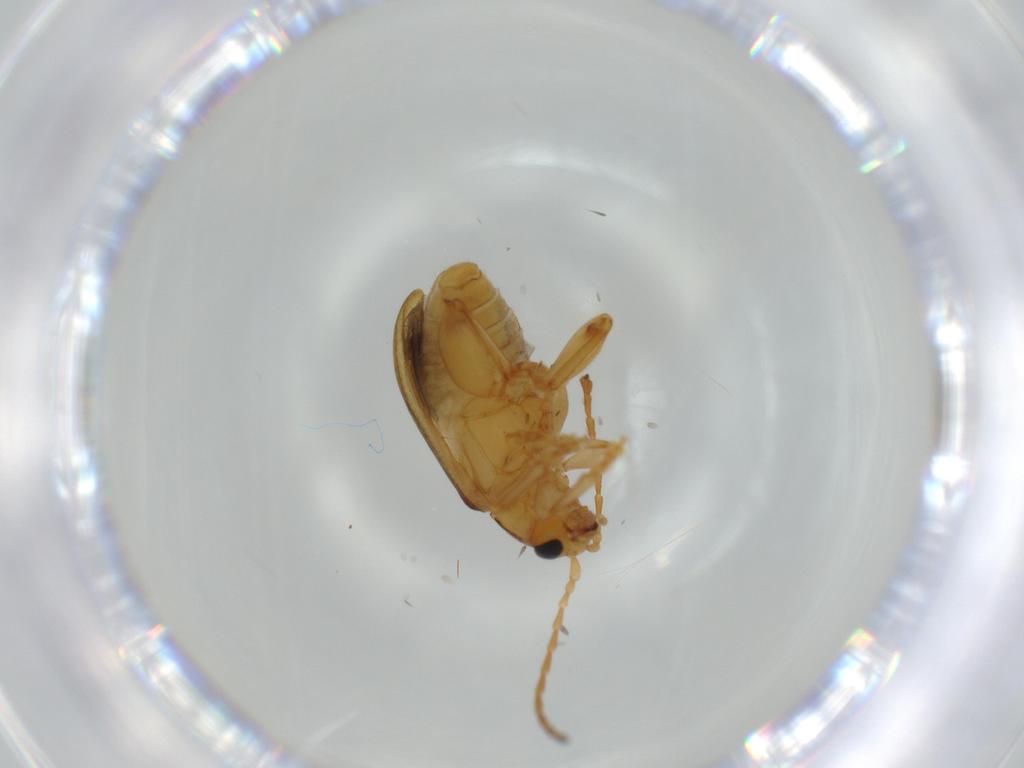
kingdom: Animalia
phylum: Arthropoda
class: Insecta
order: Coleoptera
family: Chrysomelidae
